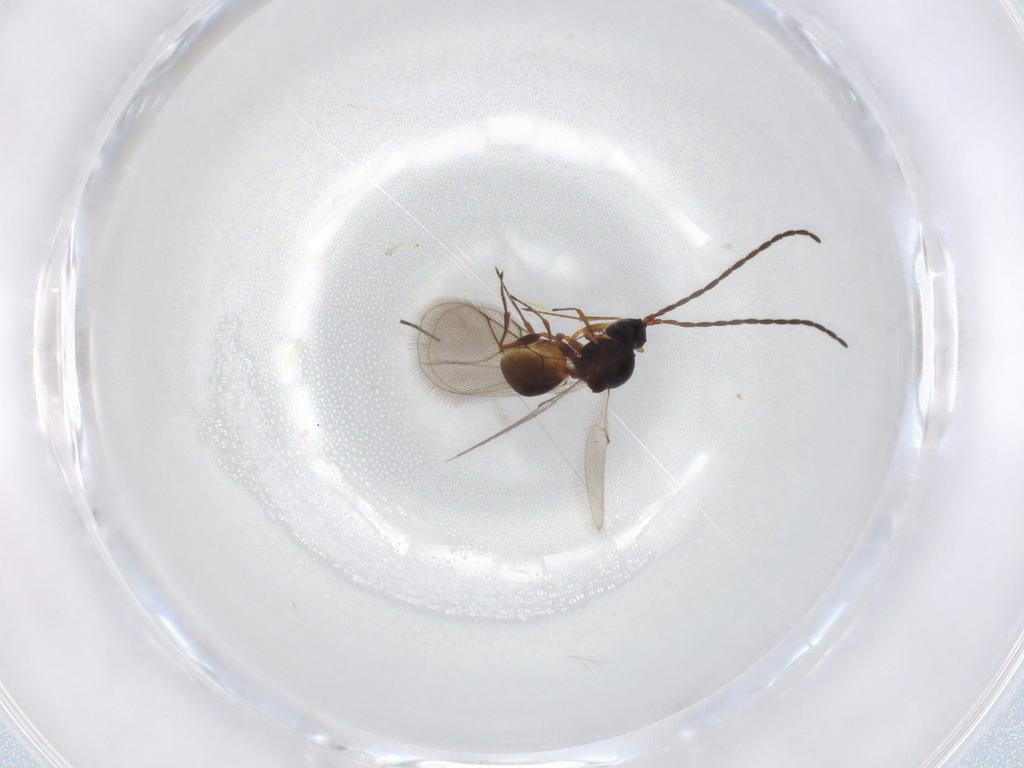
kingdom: Animalia
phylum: Arthropoda
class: Insecta
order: Hymenoptera
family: Figitidae
